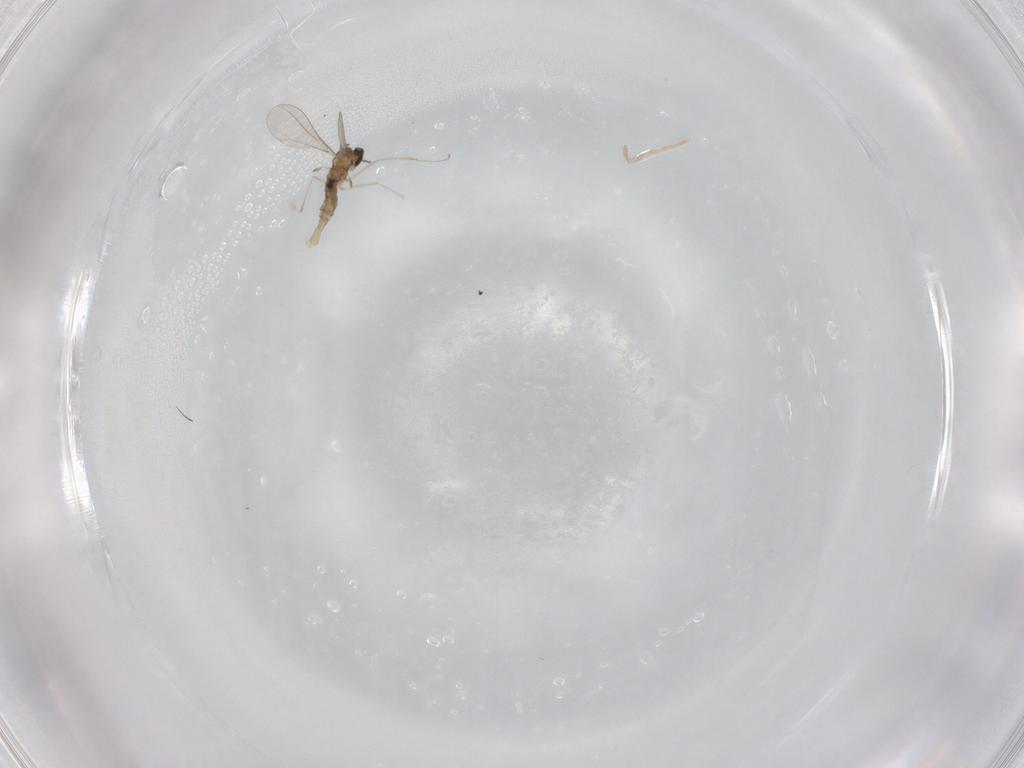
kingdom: Animalia
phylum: Arthropoda
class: Insecta
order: Diptera
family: Cecidomyiidae
